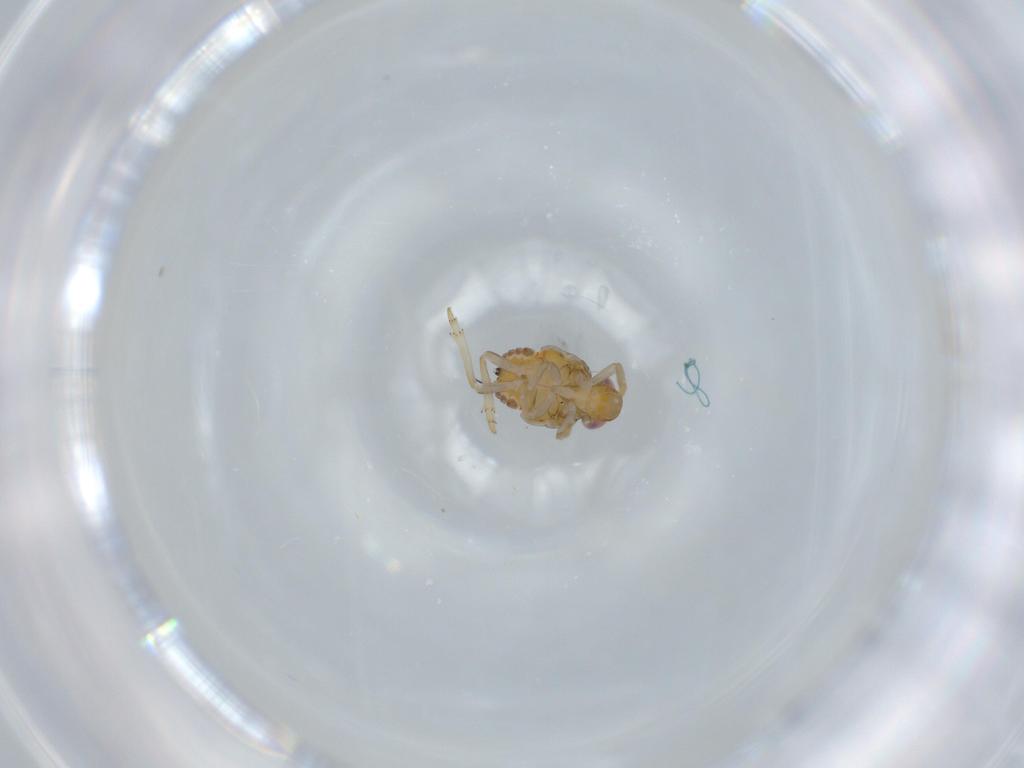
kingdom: Animalia
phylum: Arthropoda
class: Insecta
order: Hemiptera
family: Issidae
